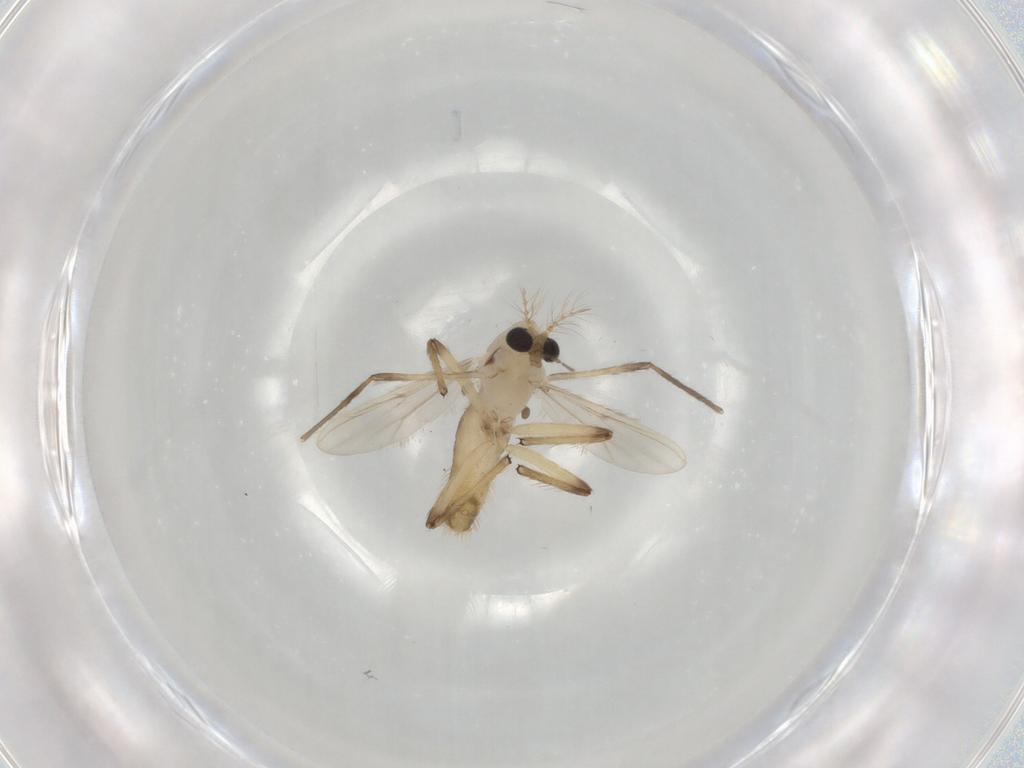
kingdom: Animalia
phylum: Arthropoda
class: Insecta
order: Diptera
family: Chironomidae
